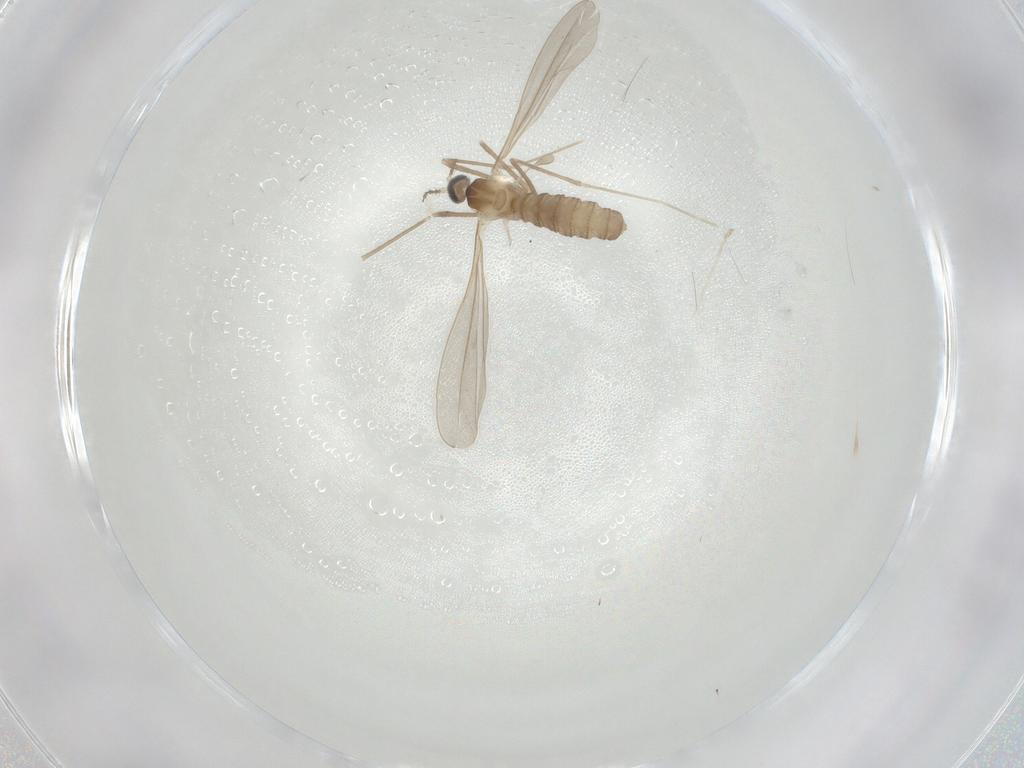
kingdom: Animalia
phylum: Arthropoda
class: Insecta
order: Diptera
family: Cecidomyiidae
